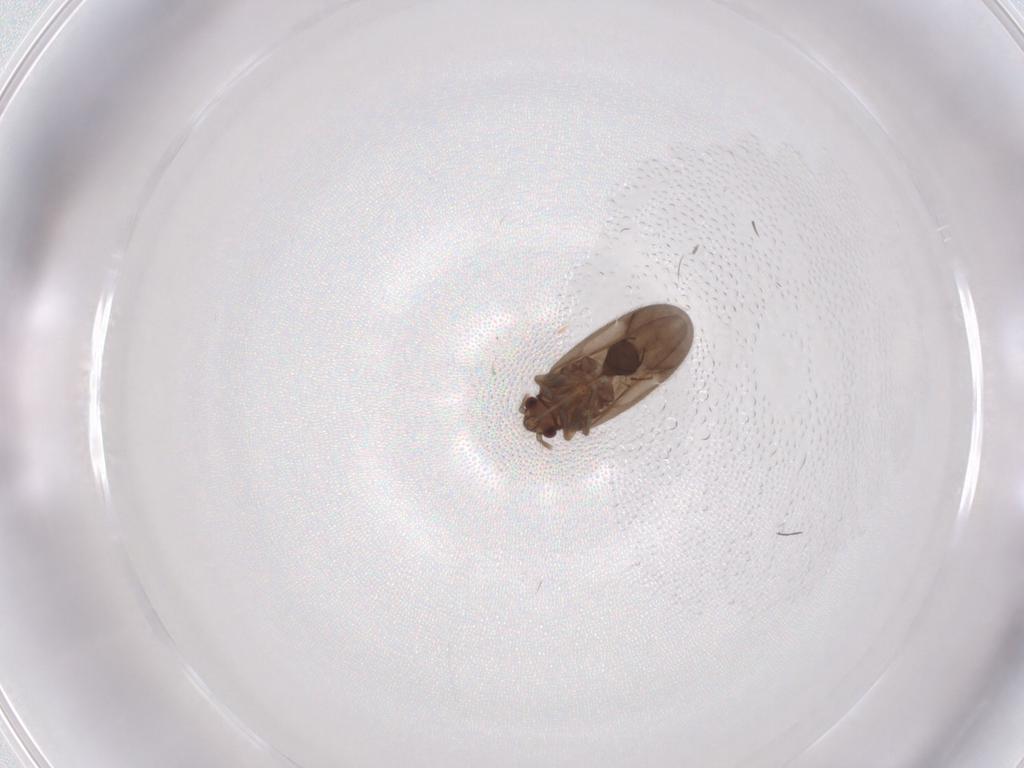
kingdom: Animalia
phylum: Arthropoda
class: Insecta
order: Hemiptera
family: Ceratocombidae
